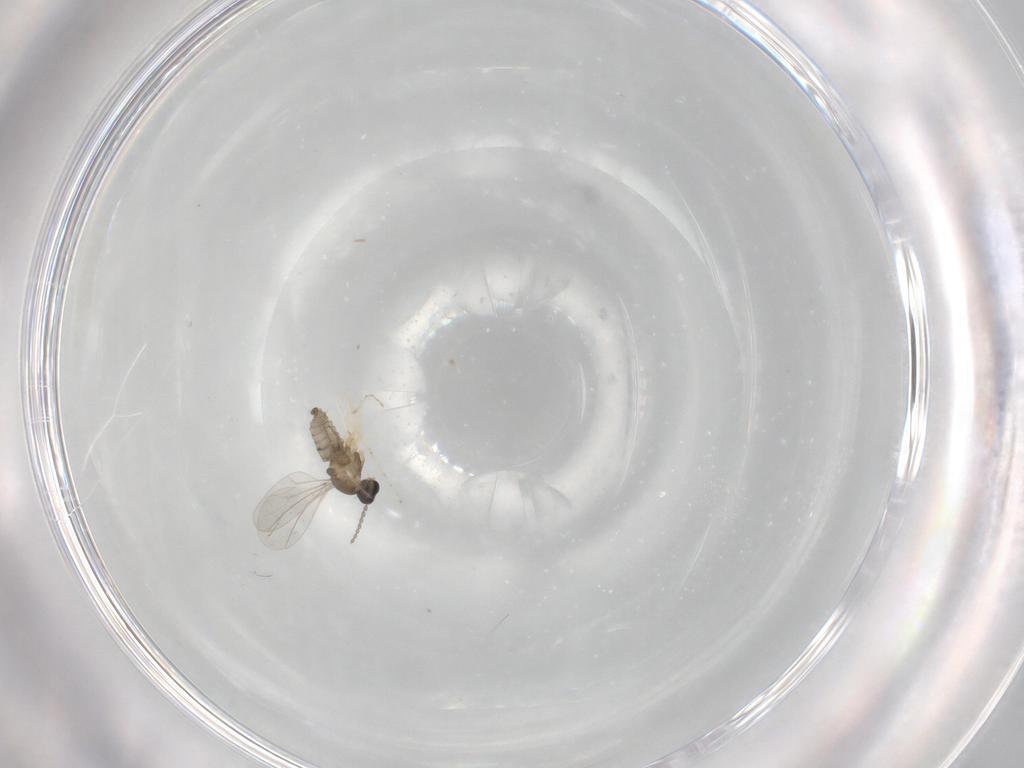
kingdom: Animalia
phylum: Arthropoda
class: Insecta
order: Diptera
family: Cecidomyiidae
